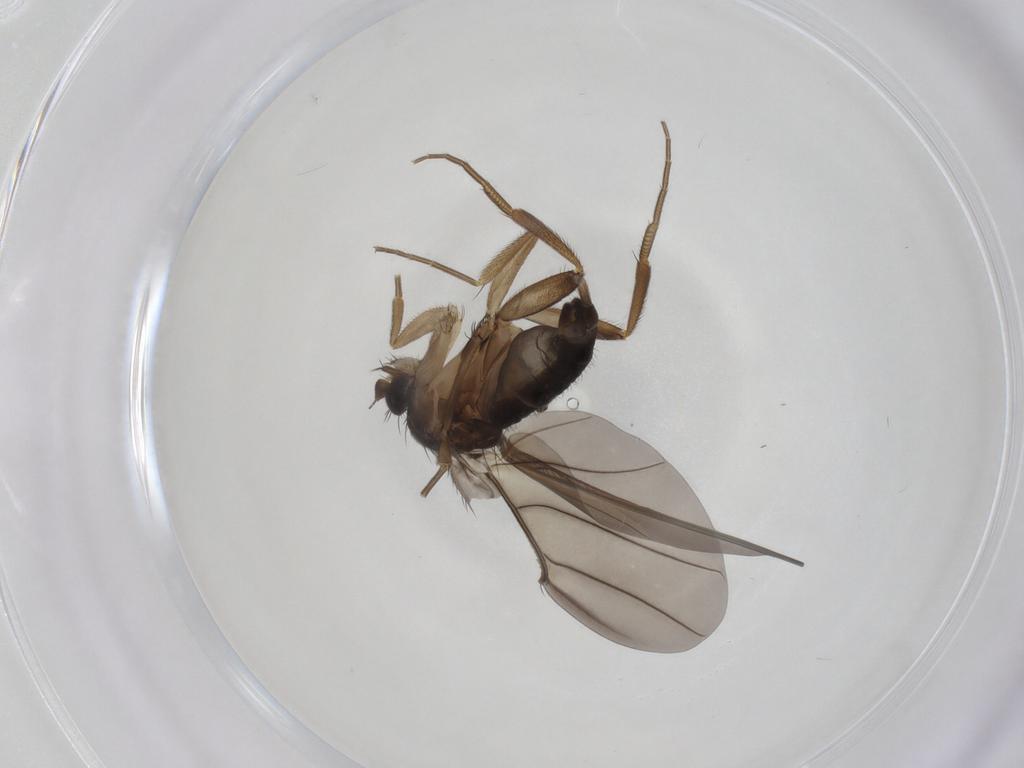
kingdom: Animalia
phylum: Arthropoda
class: Insecta
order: Diptera
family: Phoridae
